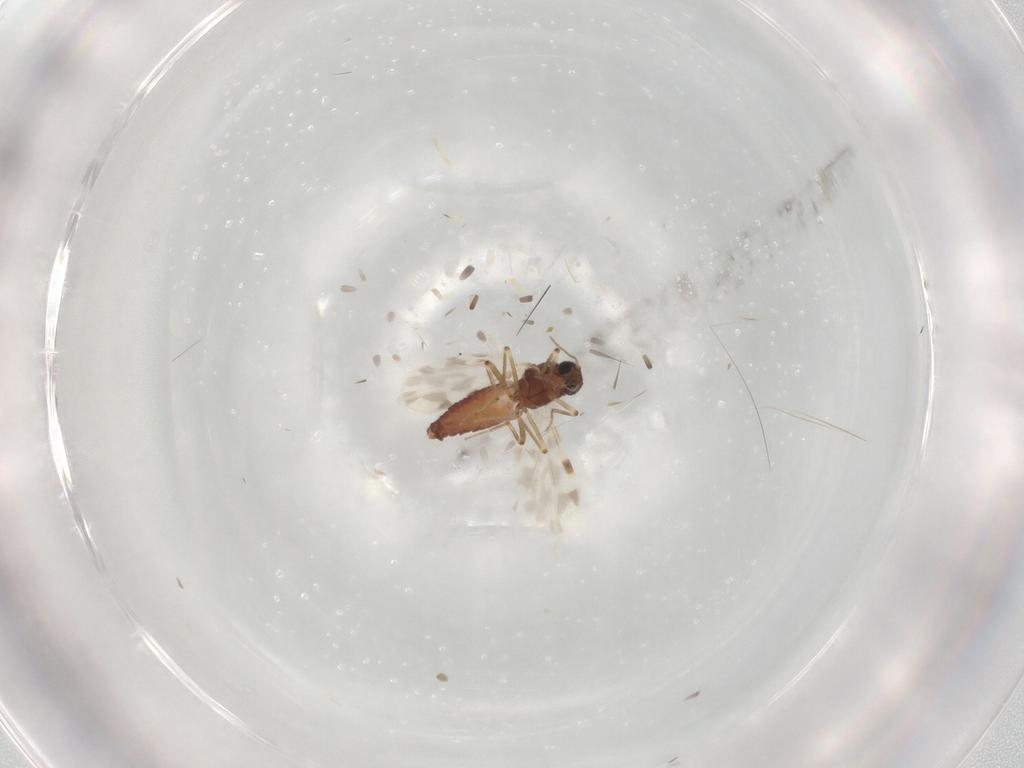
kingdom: Animalia
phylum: Arthropoda
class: Insecta
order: Diptera
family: Ceratopogonidae
